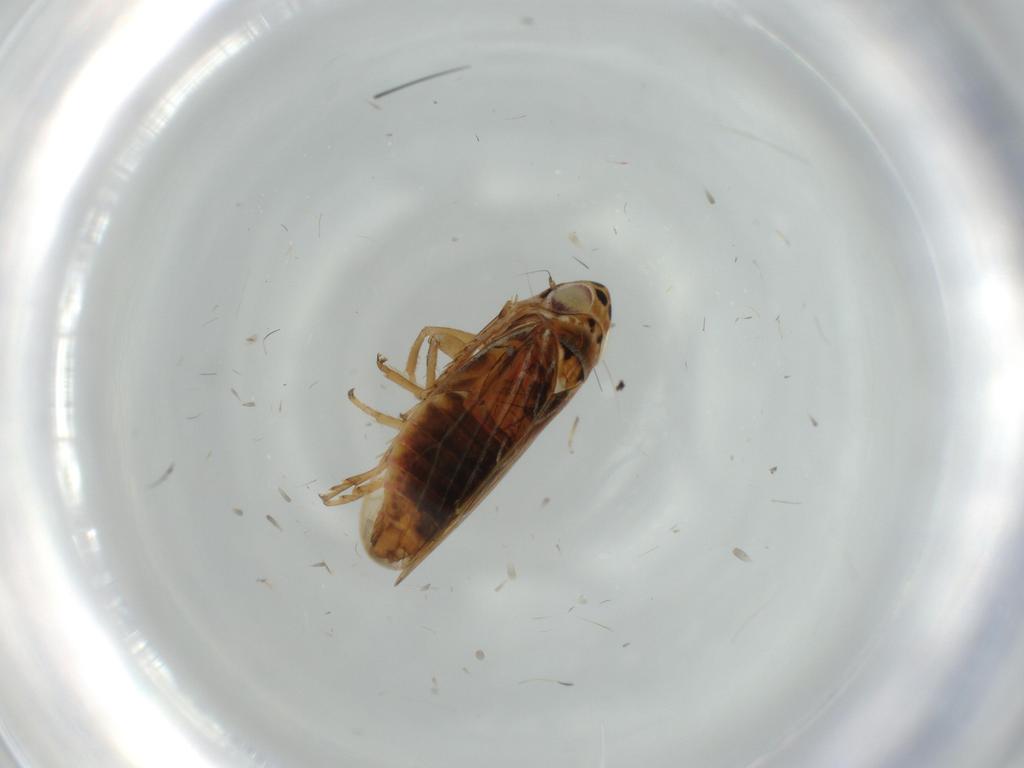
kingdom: Animalia
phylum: Arthropoda
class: Insecta
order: Hemiptera
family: Cicadellidae
